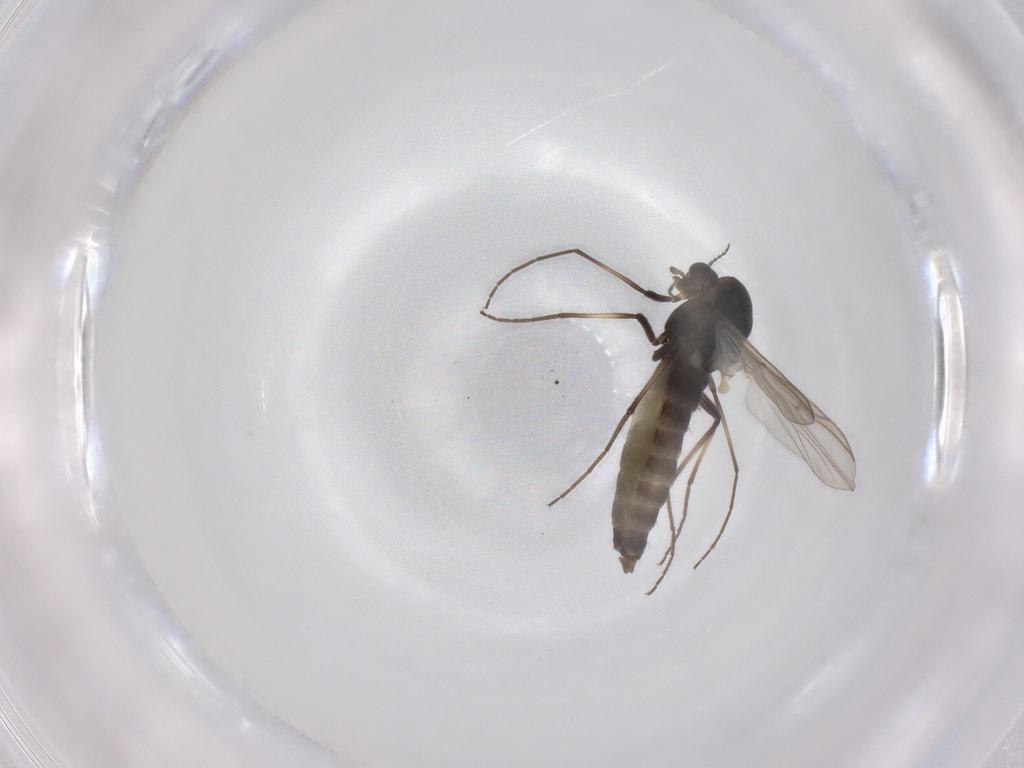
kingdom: Animalia
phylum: Arthropoda
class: Insecta
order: Diptera
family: Chironomidae
